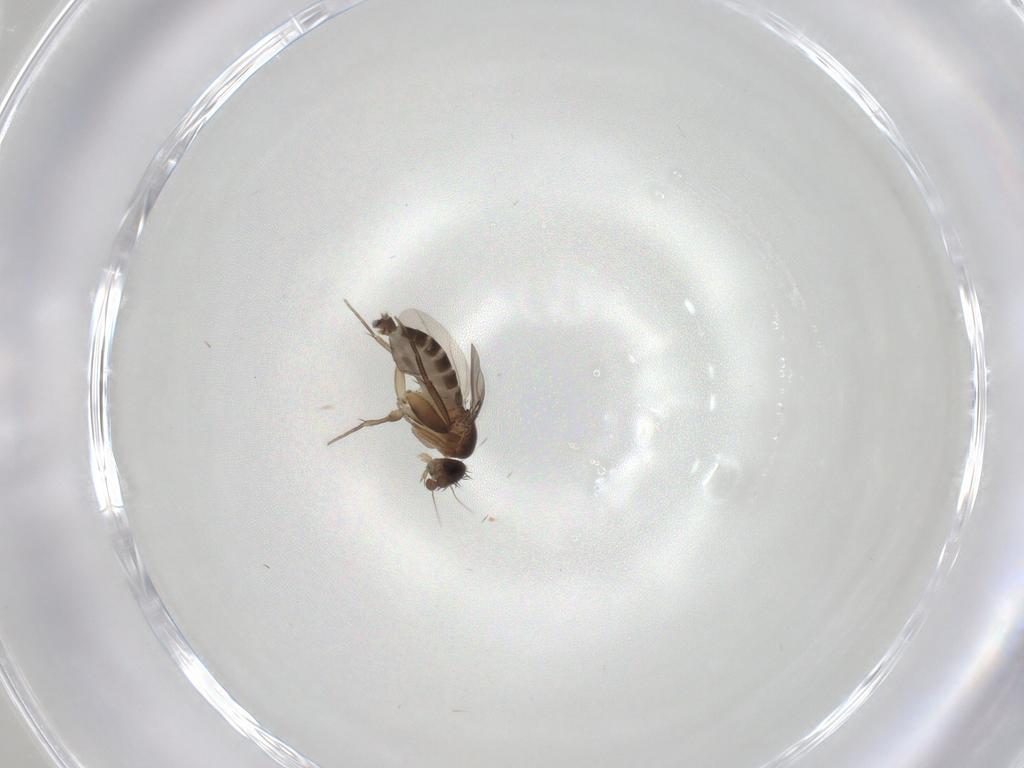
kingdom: Animalia
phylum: Arthropoda
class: Insecta
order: Diptera
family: Phoridae
